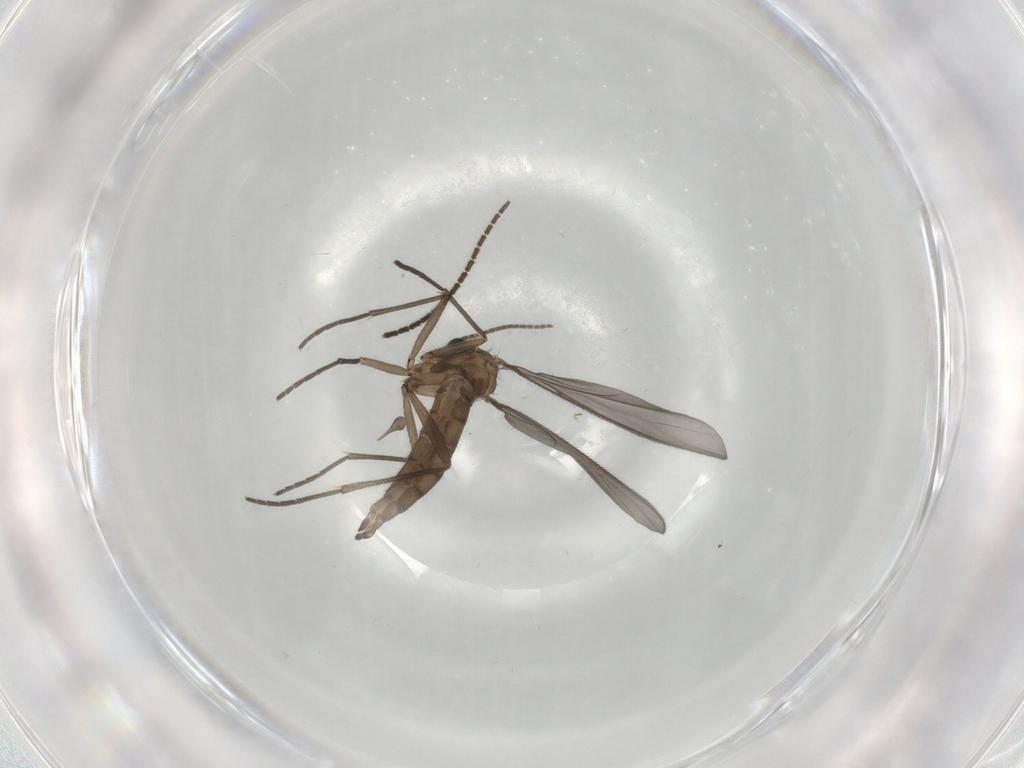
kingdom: Animalia
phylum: Arthropoda
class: Insecta
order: Diptera
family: Sciaridae
